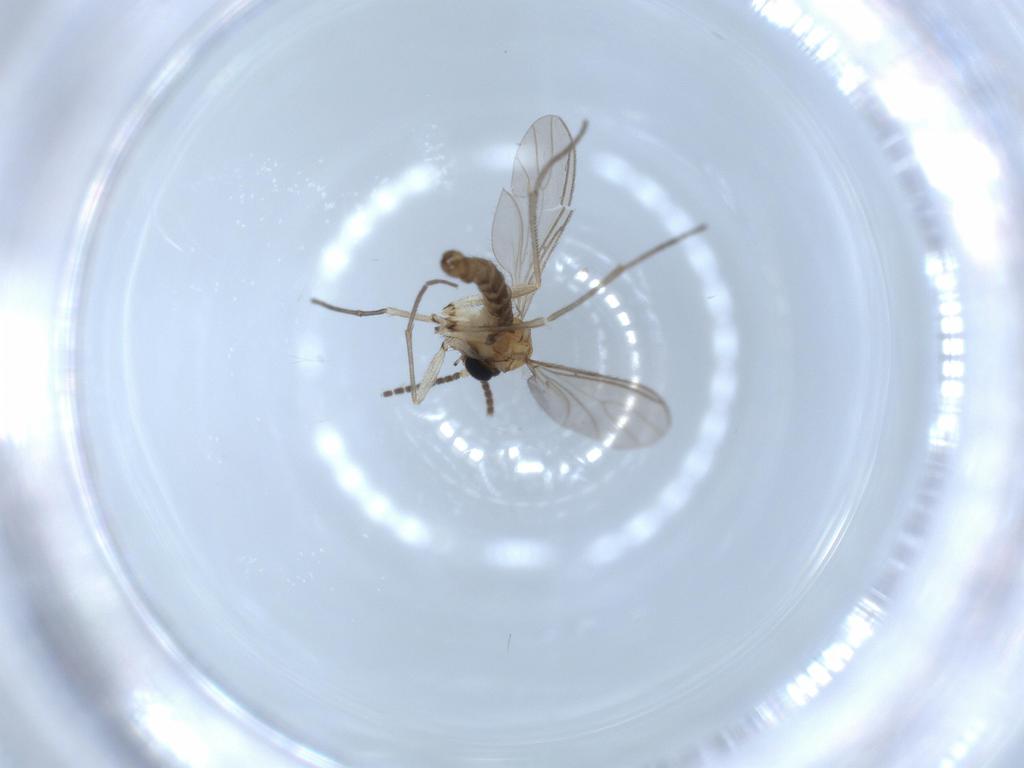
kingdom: Animalia
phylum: Arthropoda
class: Insecta
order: Diptera
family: Sciaridae
